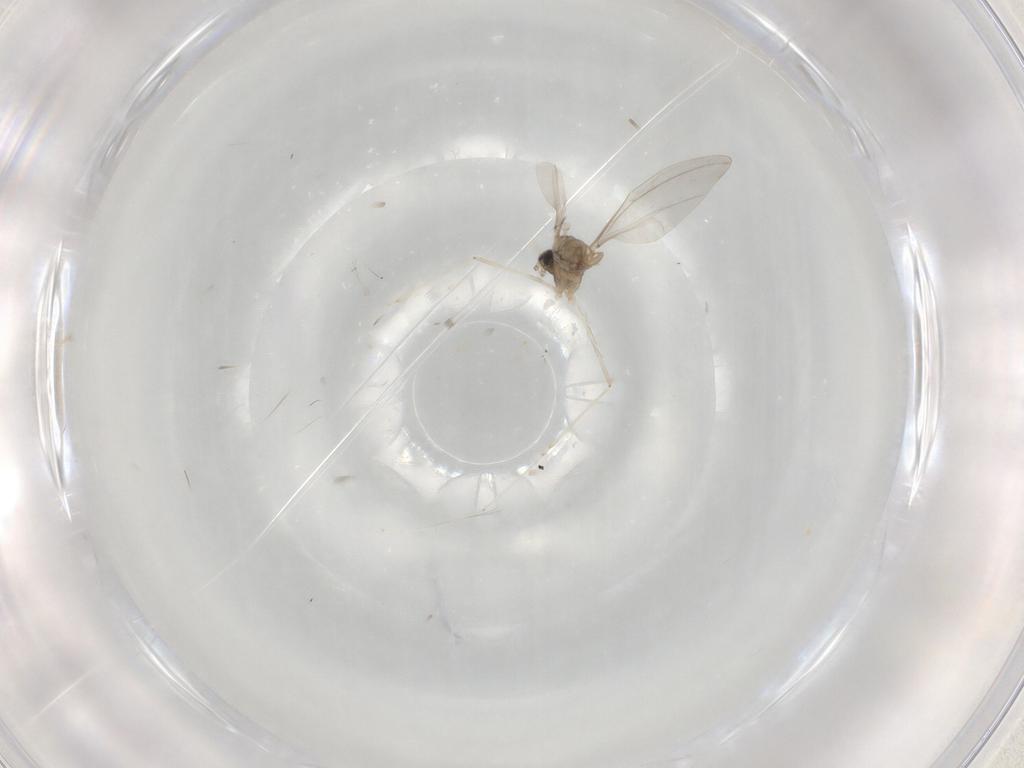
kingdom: Animalia
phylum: Arthropoda
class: Insecta
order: Diptera
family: Cecidomyiidae
